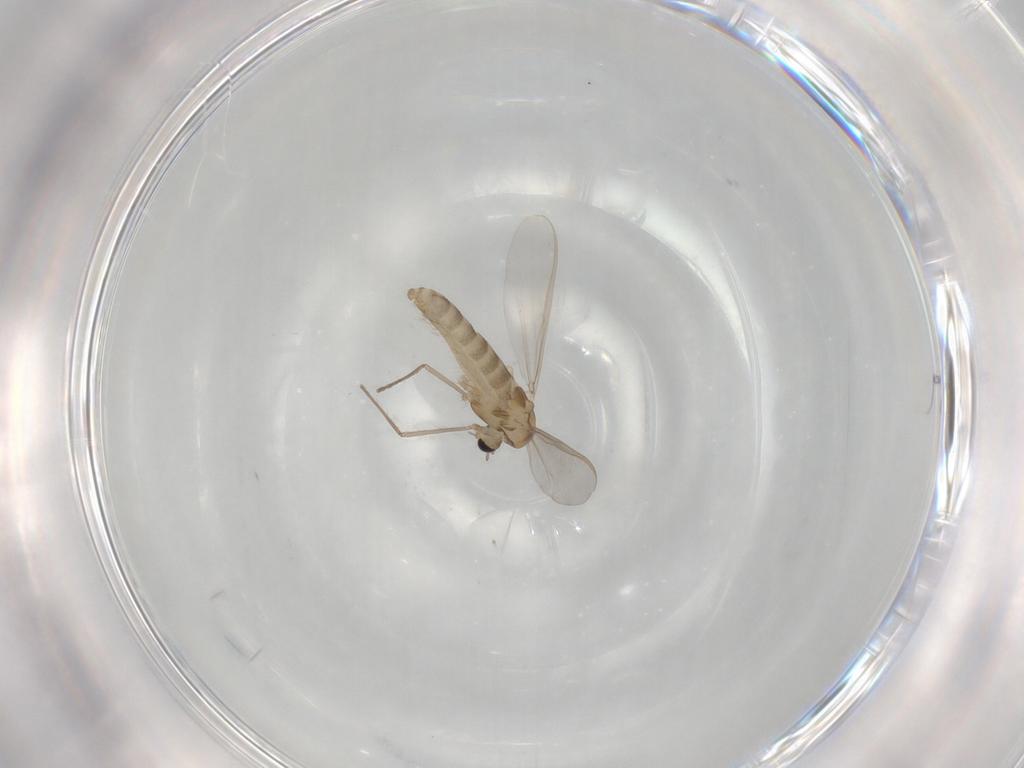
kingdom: Animalia
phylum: Arthropoda
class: Insecta
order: Diptera
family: Chironomidae
